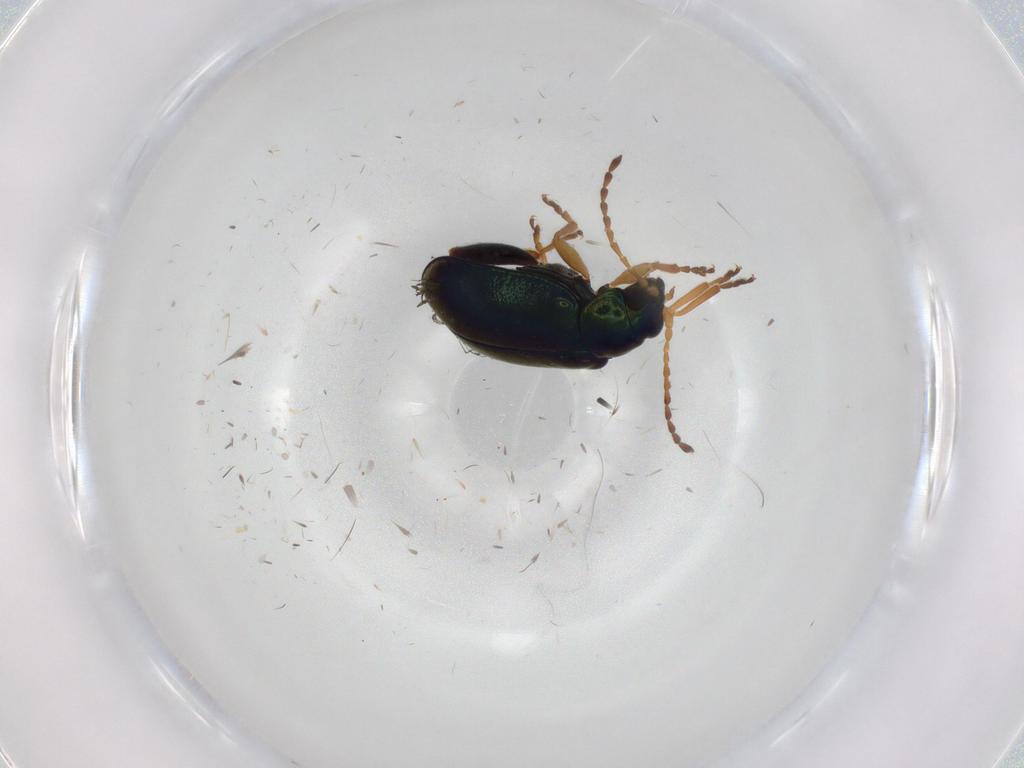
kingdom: Animalia
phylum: Arthropoda
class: Insecta
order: Coleoptera
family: Chrysomelidae
